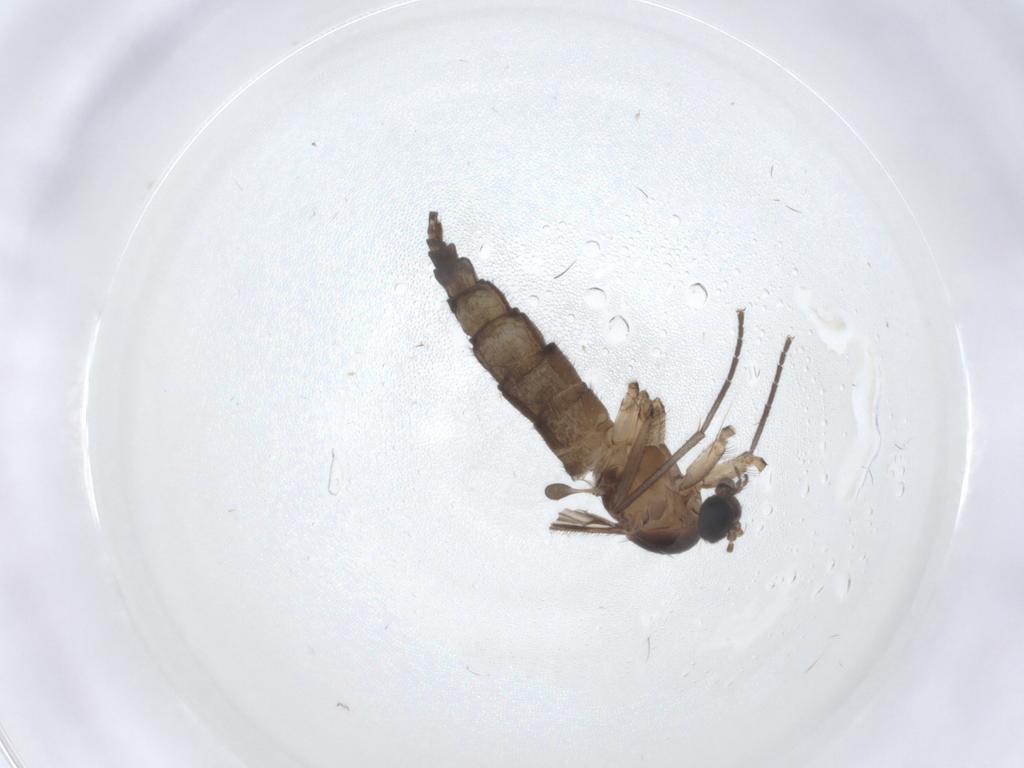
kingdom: Animalia
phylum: Arthropoda
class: Insecta
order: Diptera
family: Cecidomyiidae
